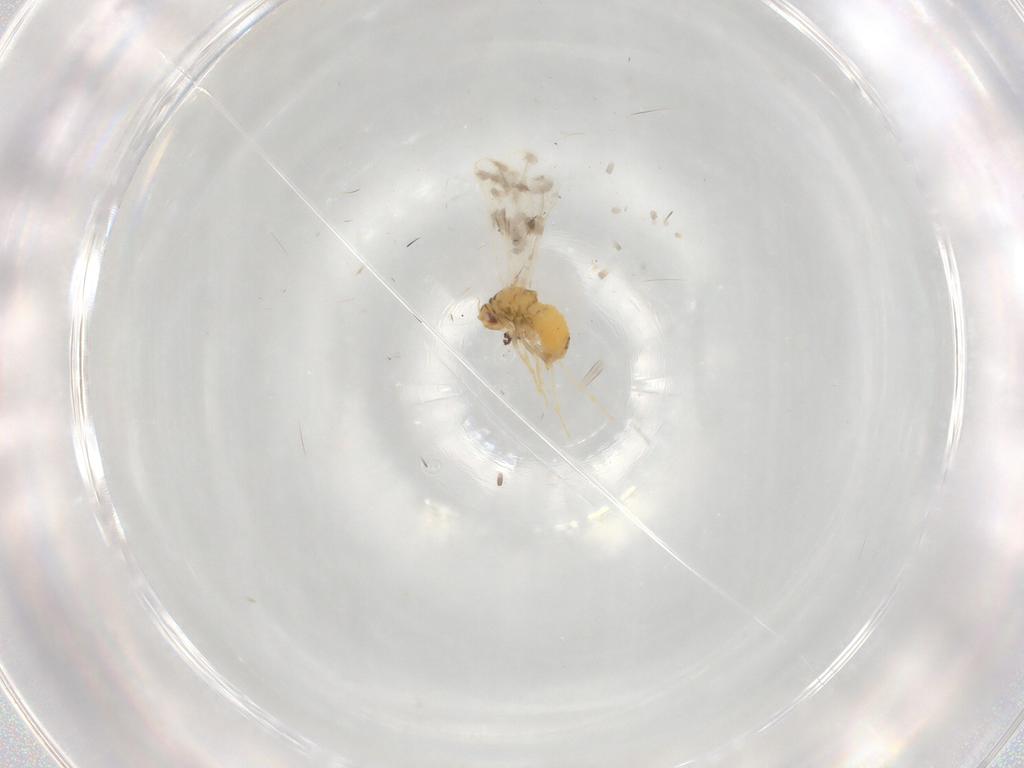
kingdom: Animalia
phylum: Arthropoda
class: Insecta
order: Hemiptera
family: Aleyrodidae
